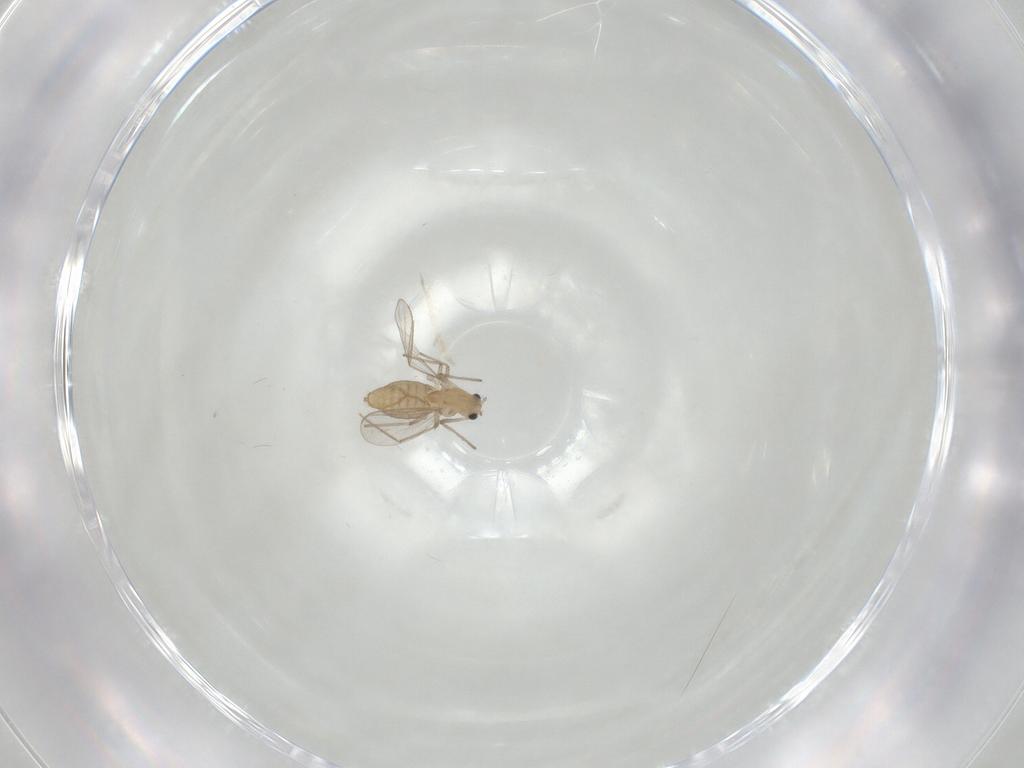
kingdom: Animalia
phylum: Arthropoda
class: Insecta
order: Diptera
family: Chironomidae
